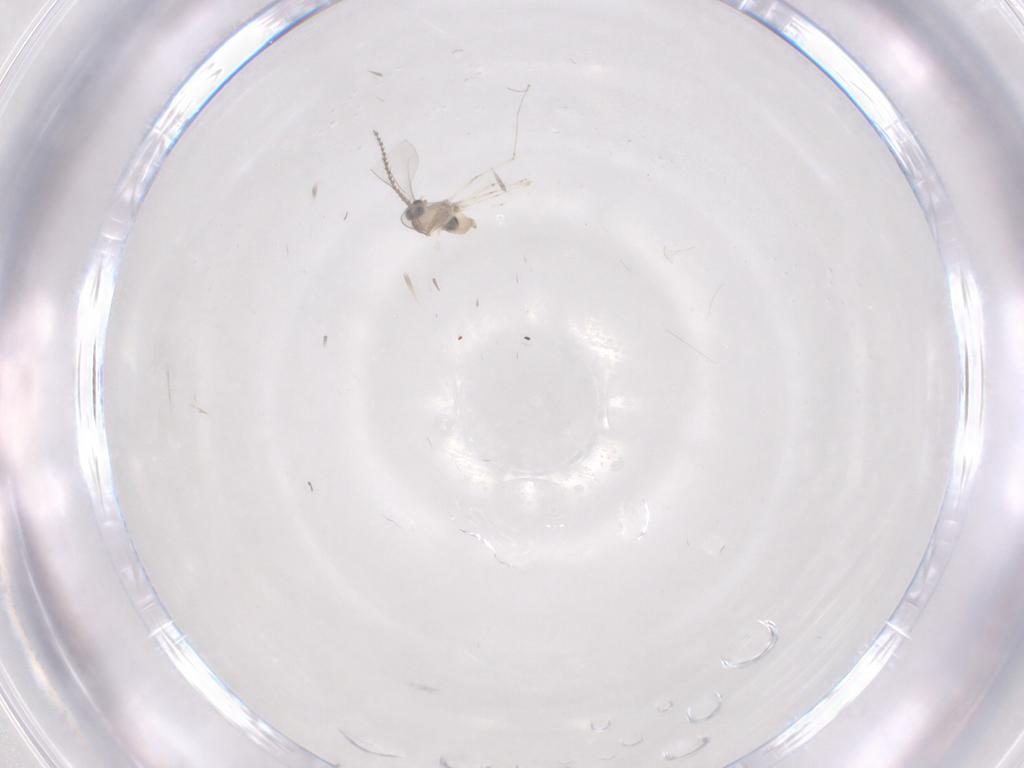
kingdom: Animalia
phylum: Arthropoda
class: Insecta
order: Diptera
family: Cecidomyiidae
